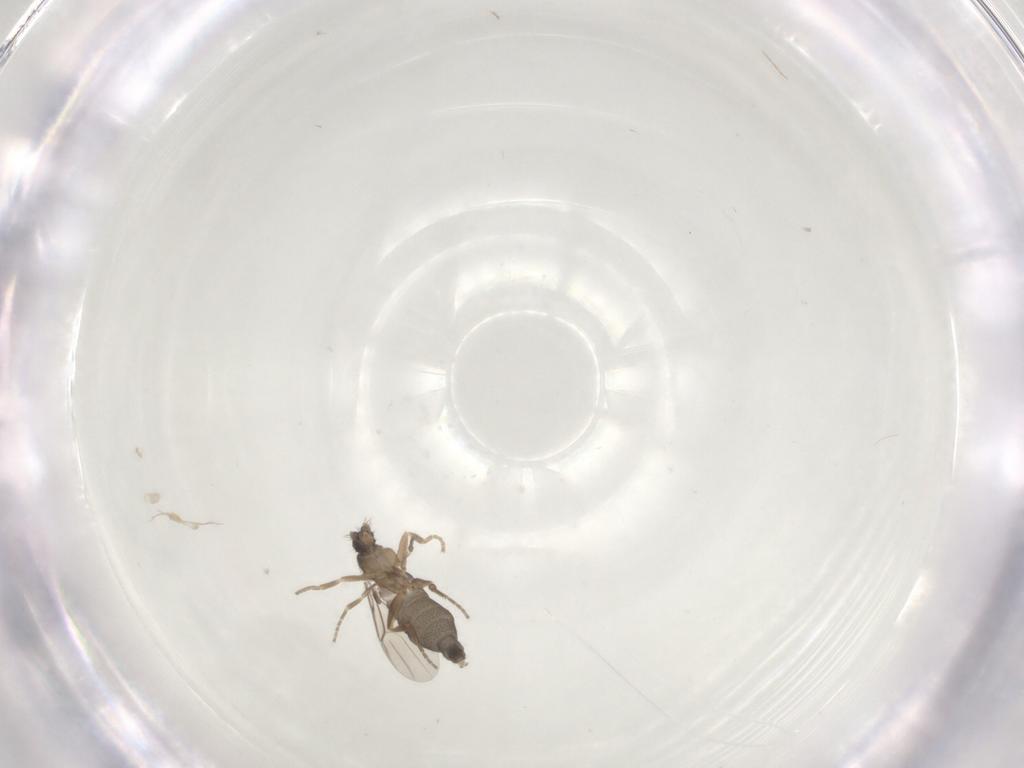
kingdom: Animalia
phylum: Arthropoda
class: Insecta
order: Diptera
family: Psychodidae
